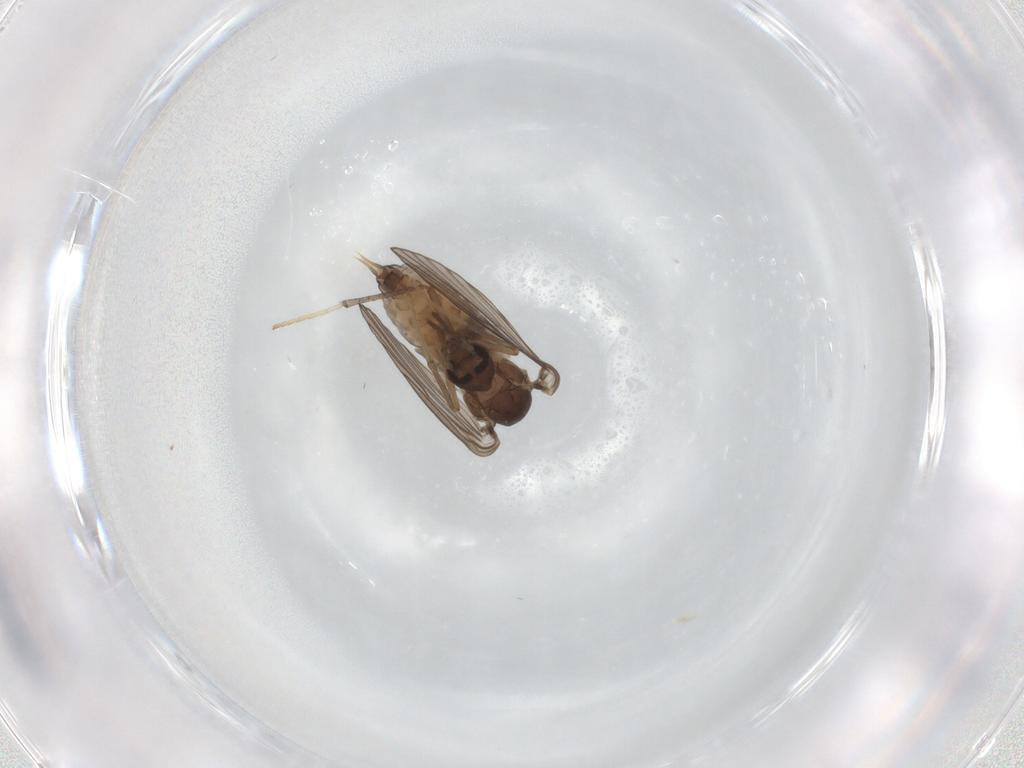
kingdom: Animalia
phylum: Arthropoda
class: Insecta
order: Diptera
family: Psychodidae
